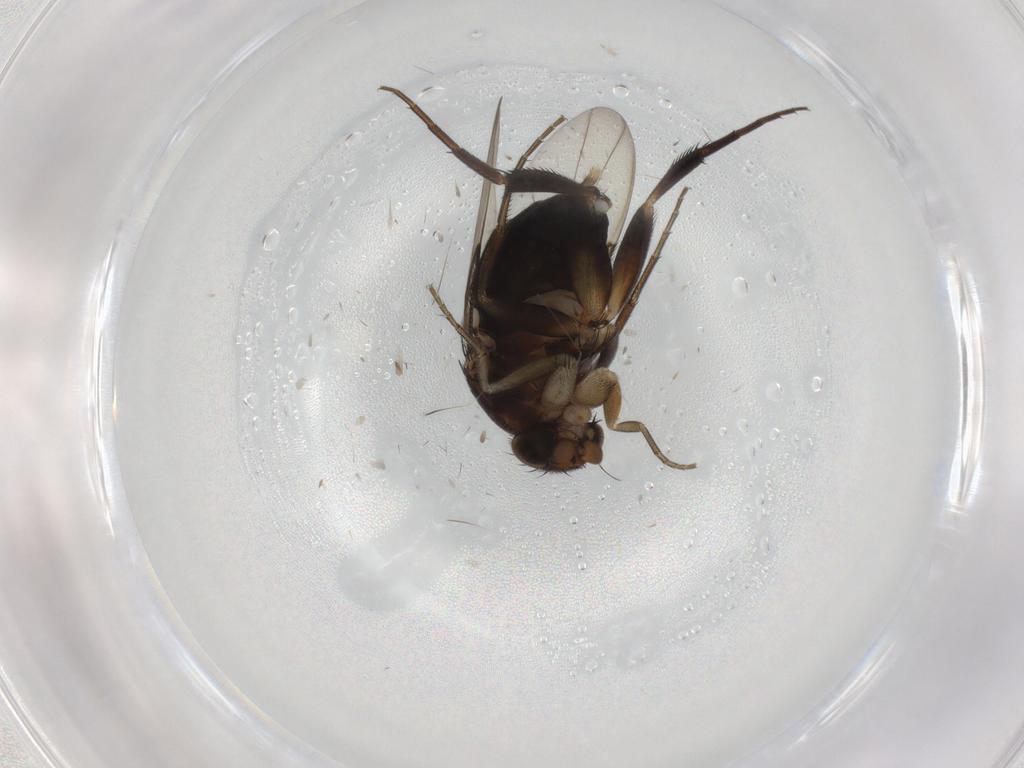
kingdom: Animalia
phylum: Arthropoda
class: Insecta
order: Diptera
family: Phoridae
